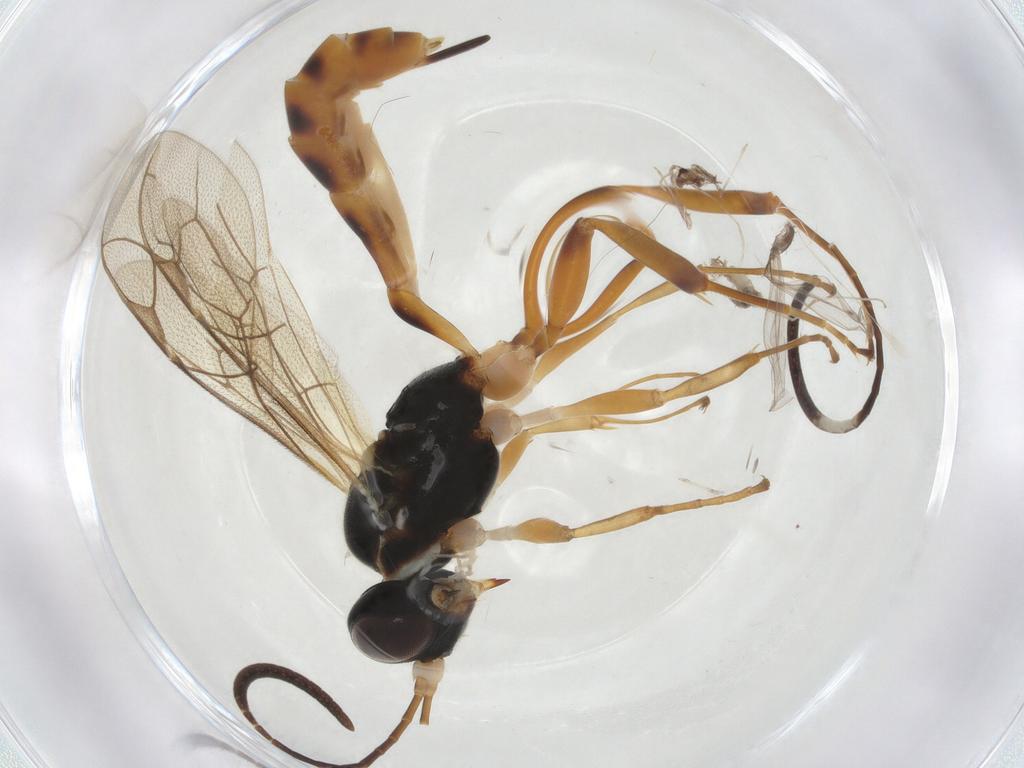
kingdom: Animalia
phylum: Arthropoda
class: Insecta
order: Hymenoptera
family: Ichneumonidae
